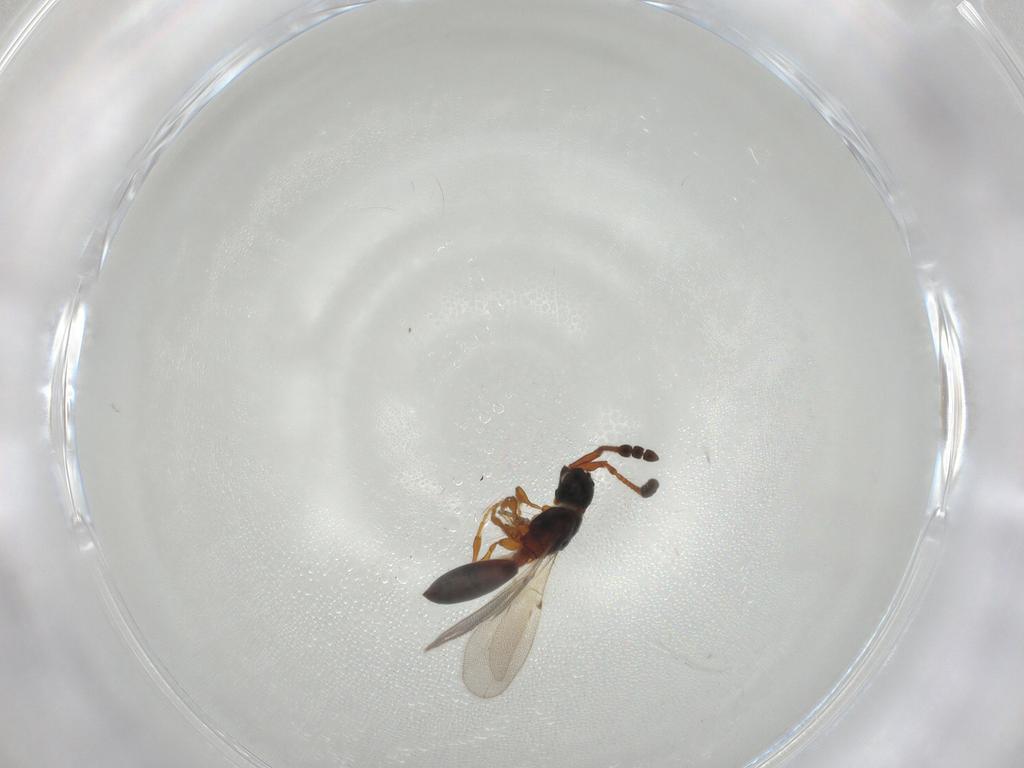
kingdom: Animalia
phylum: Arthropoda
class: Insecta
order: Hymenoptera
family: Diapriidae
